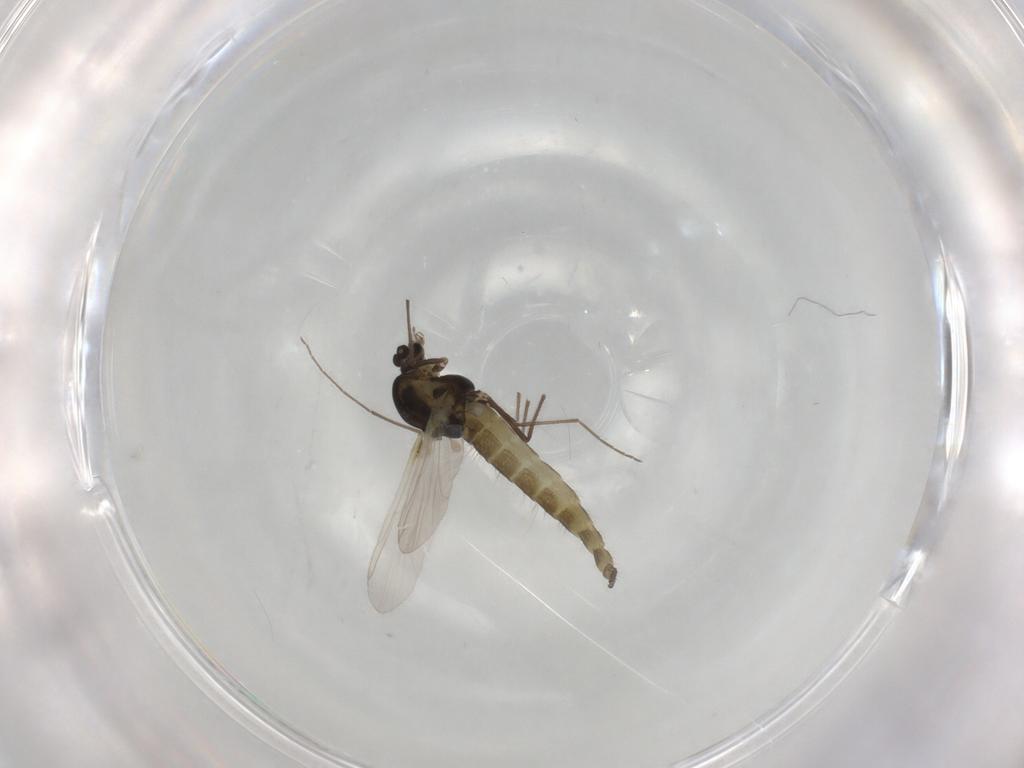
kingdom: Animalia
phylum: Arthropoda
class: Insecta
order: Diptera
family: Chironomidae
